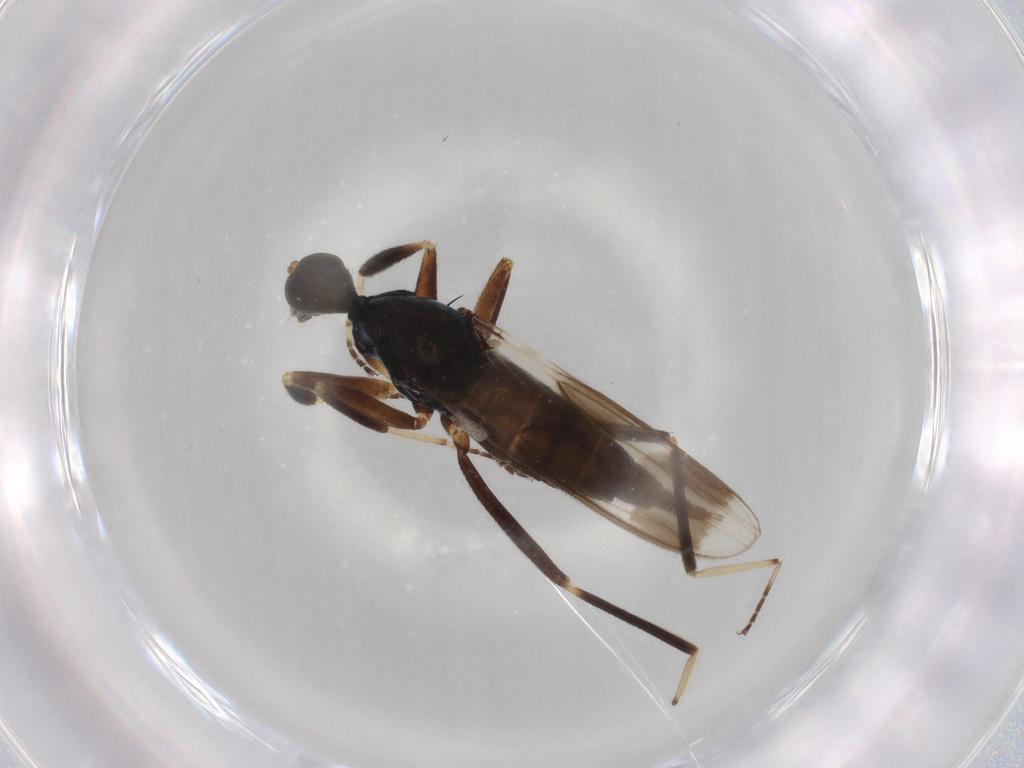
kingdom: Animalia
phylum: Arthropoda
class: Insecta
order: Diptera
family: Hybotidae
